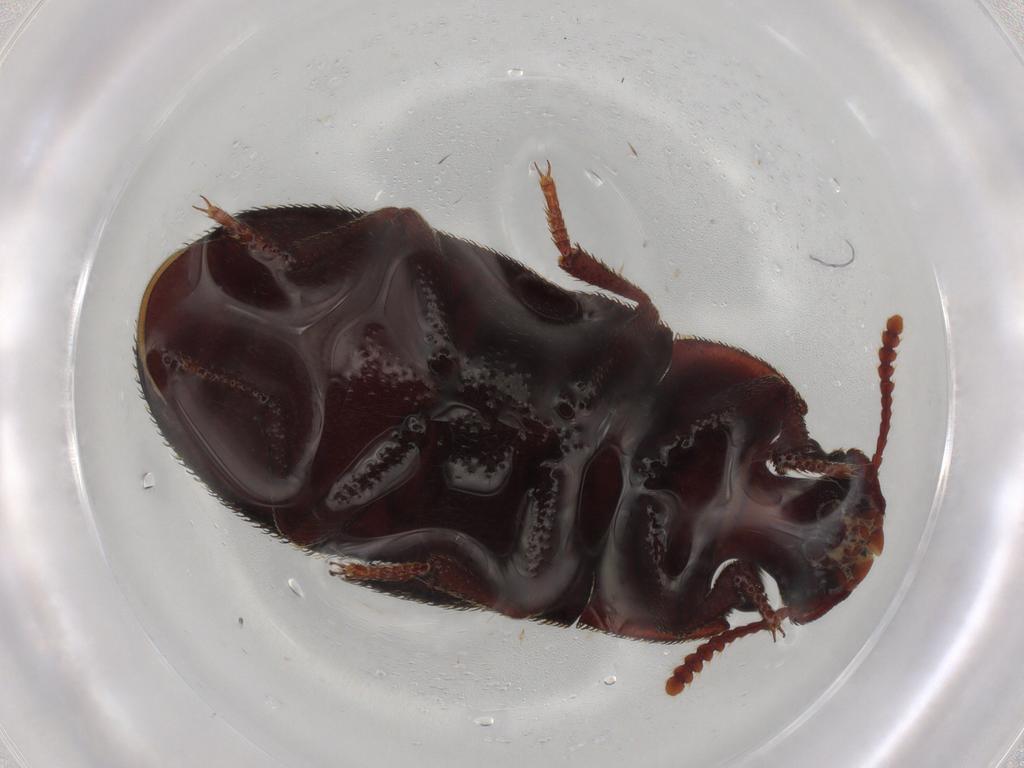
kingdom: Animalia
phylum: Arthropoda
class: Insecta
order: Coleoptera
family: Tenebrionidae
